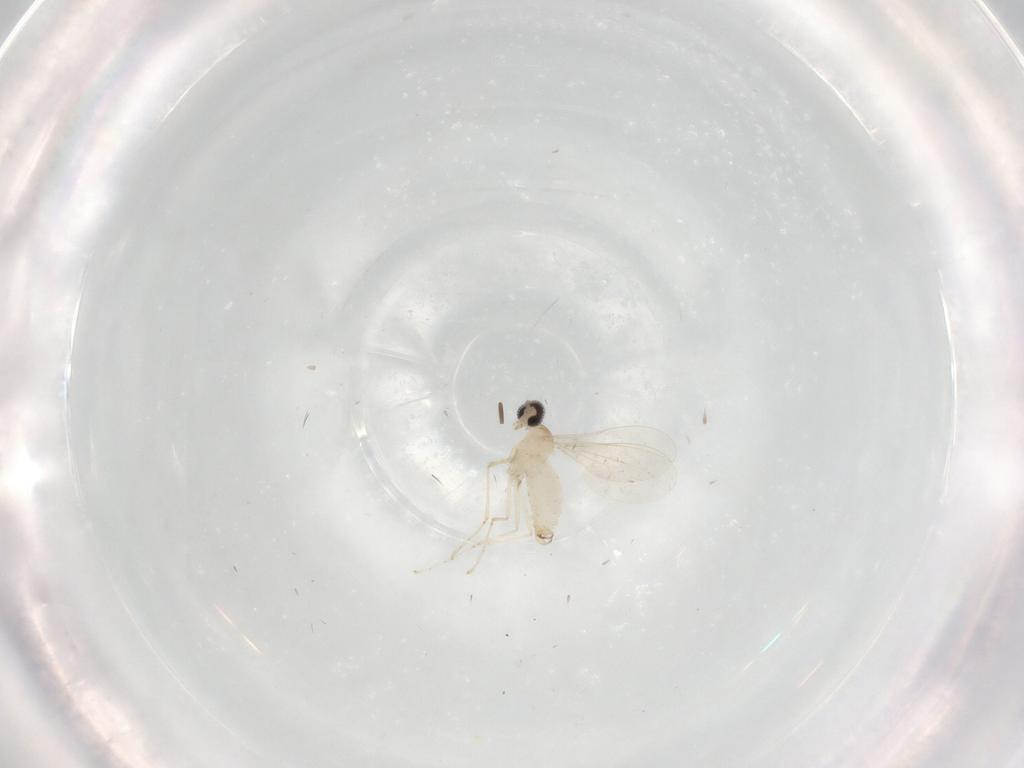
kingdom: Animalia
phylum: Arthropoda
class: Insecta
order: Diptera
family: Cecidomyiidae
